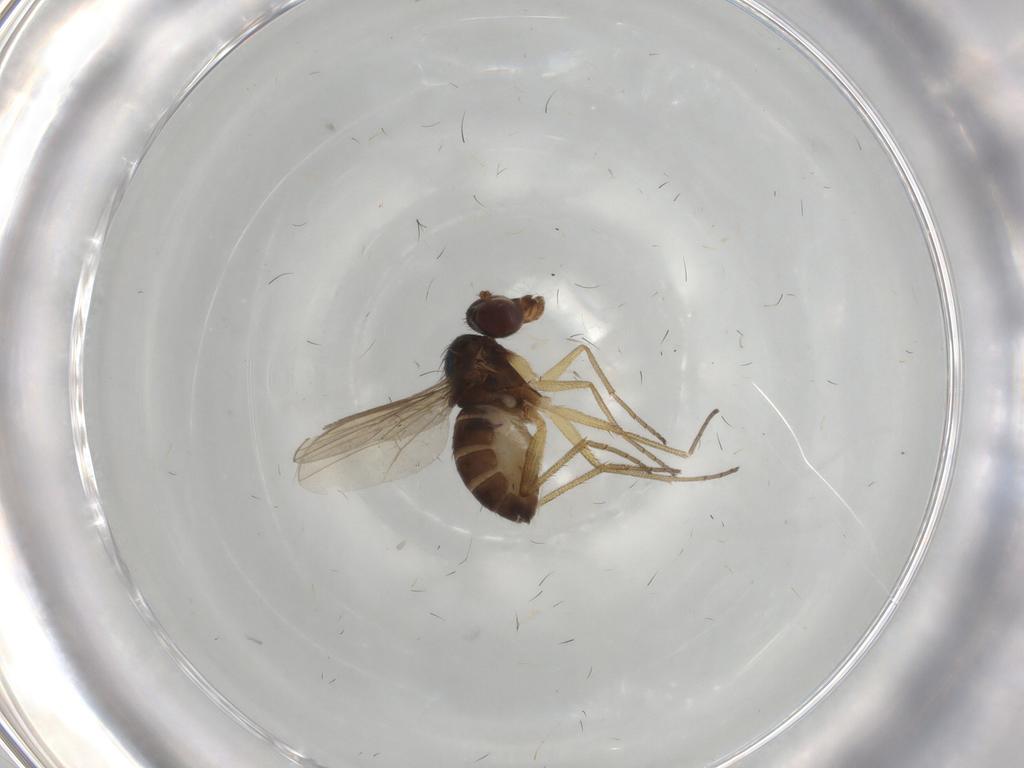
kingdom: Animalia
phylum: Arthropoda
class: Insecta
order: Diptera
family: Dolichopodidae
